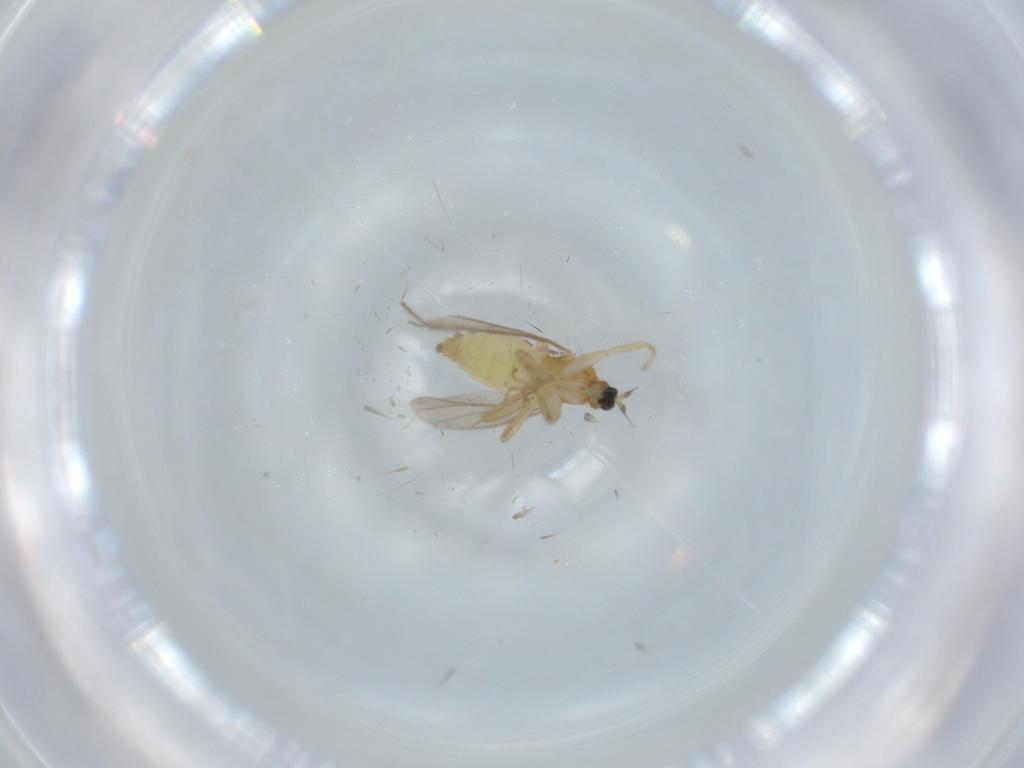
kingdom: Animalia
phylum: Arthropoda
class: Insecta
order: Diptera
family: Hybotidae
